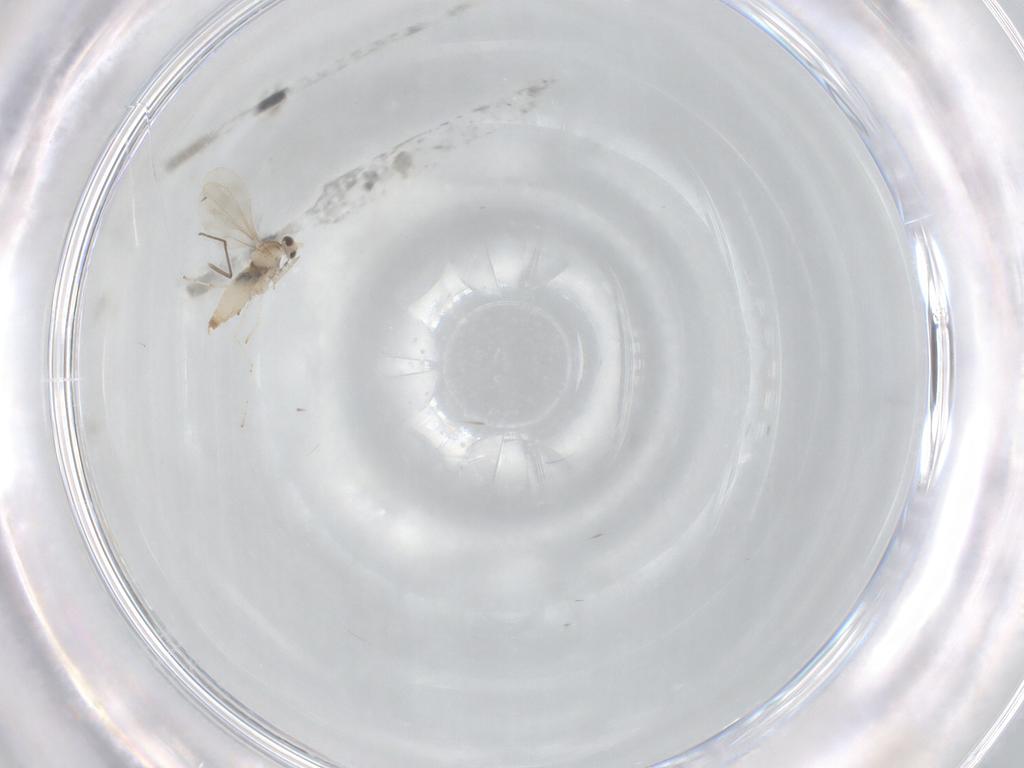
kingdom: Animalia
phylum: Arthropoda
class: Insecta
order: Diptera
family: Chironomidae
